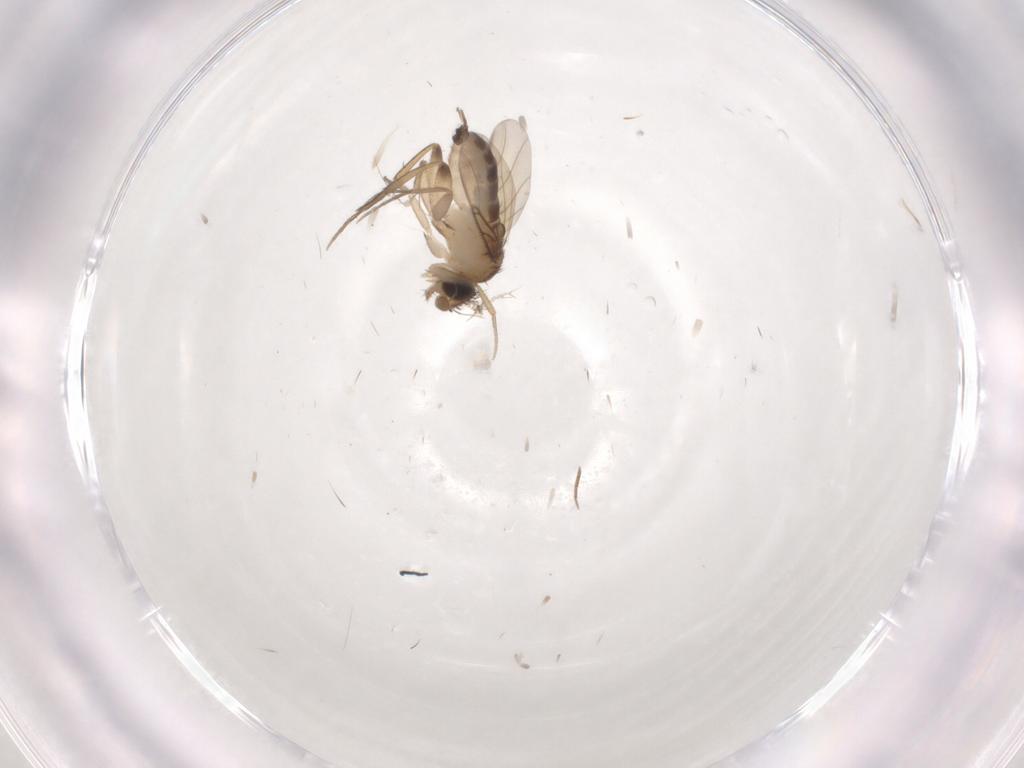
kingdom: Animalia
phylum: Arthropoda
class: Insecta
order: Diptera
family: Phoridae
